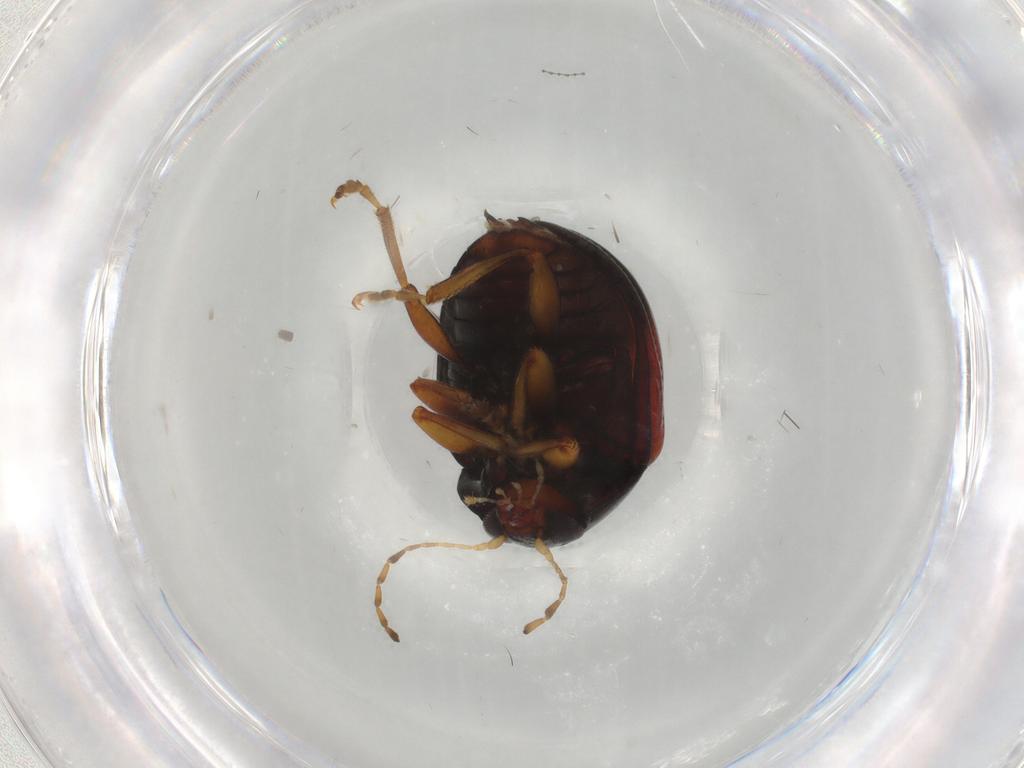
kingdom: Animalia
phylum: Arthropoda
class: Insecta
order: Coleoptera
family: Chrysomelidae
